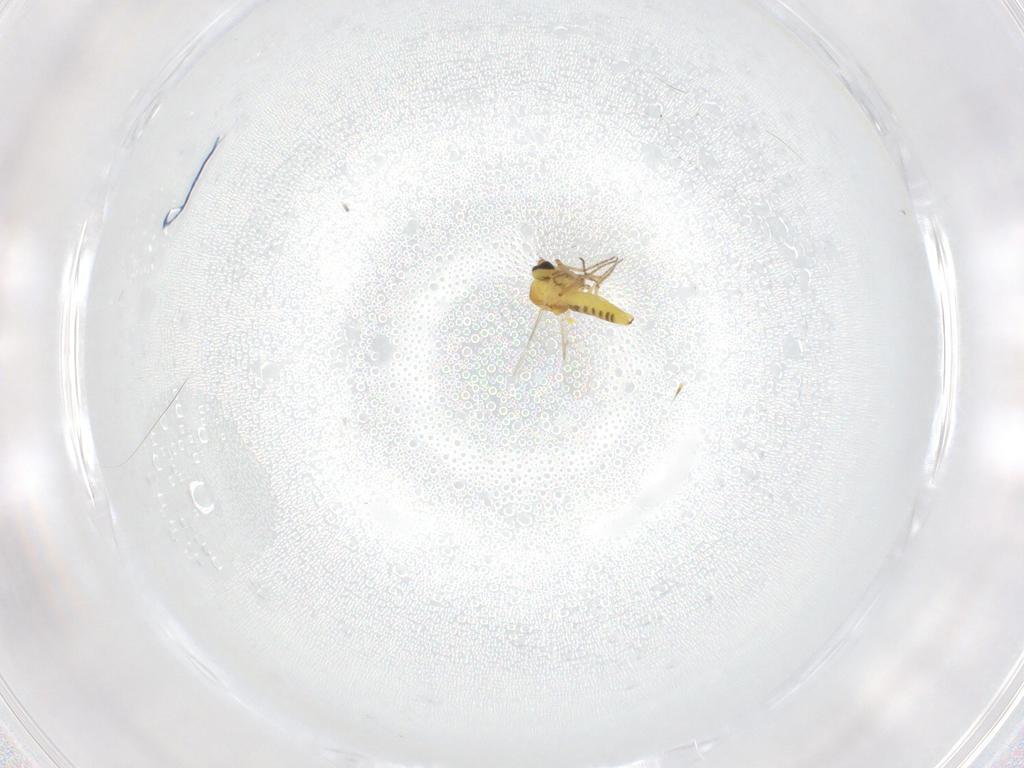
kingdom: Animalia
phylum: Arthropoda
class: Insecta
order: Diptera
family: Ceratopogonidae
